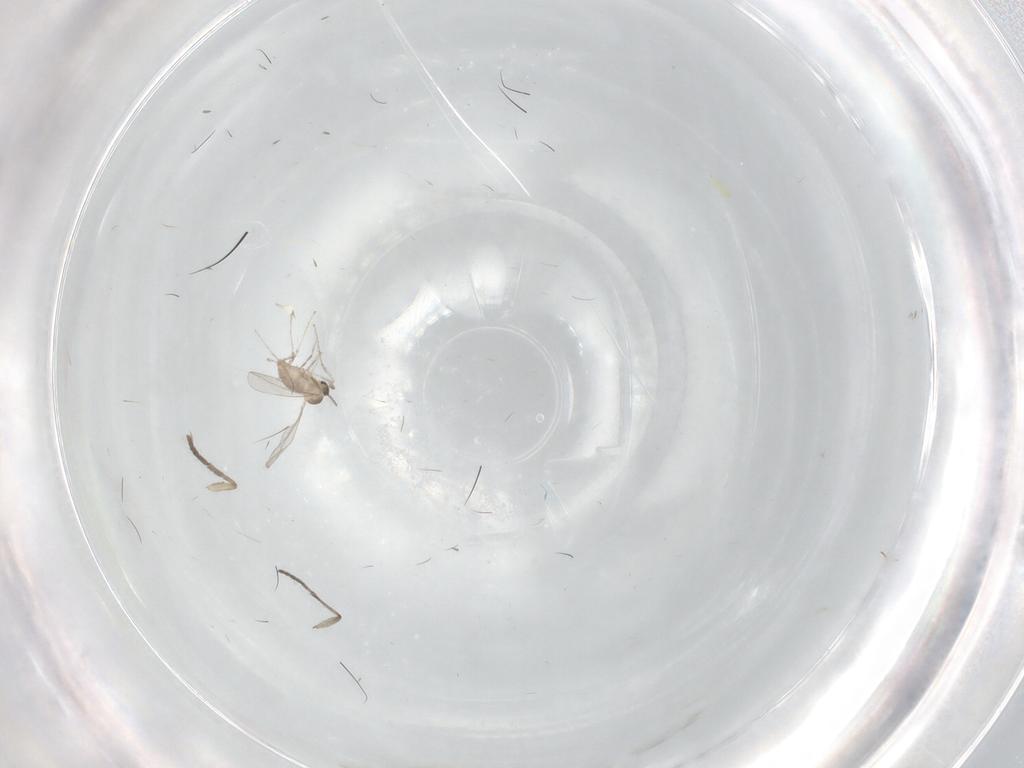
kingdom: Animalia
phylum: Arthropoda
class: Insecta
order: Diptera
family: Cecidomyiidae
